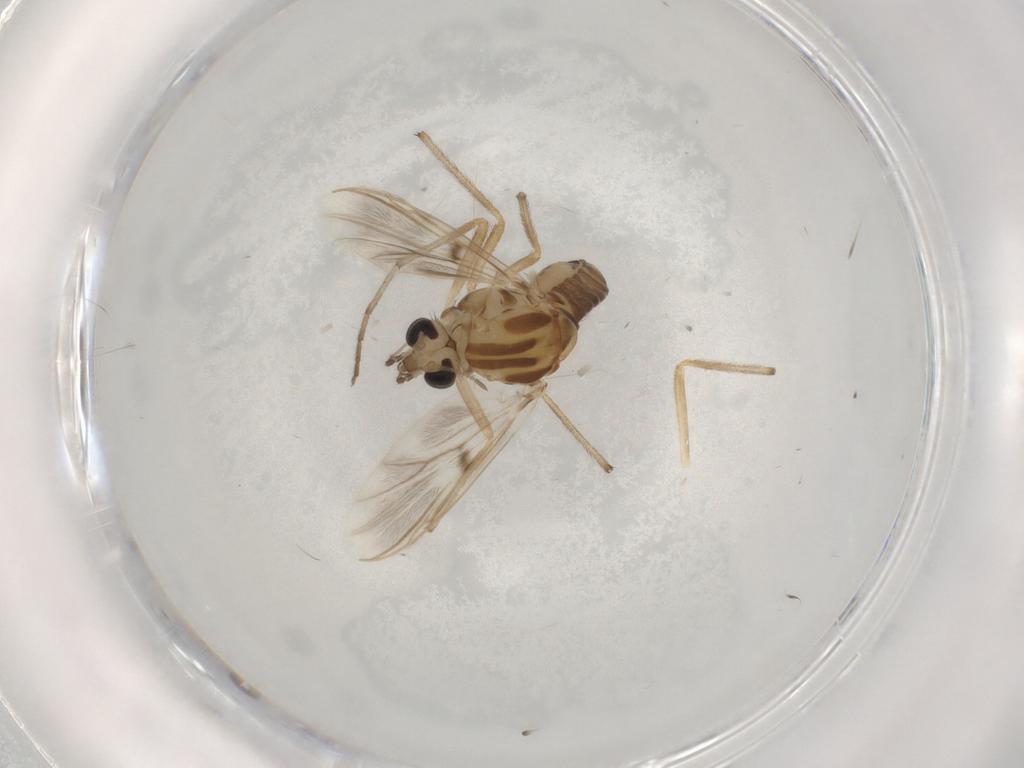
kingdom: Animalia
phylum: Arthropoda
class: Insecta
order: Diptera
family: Chironomidae
